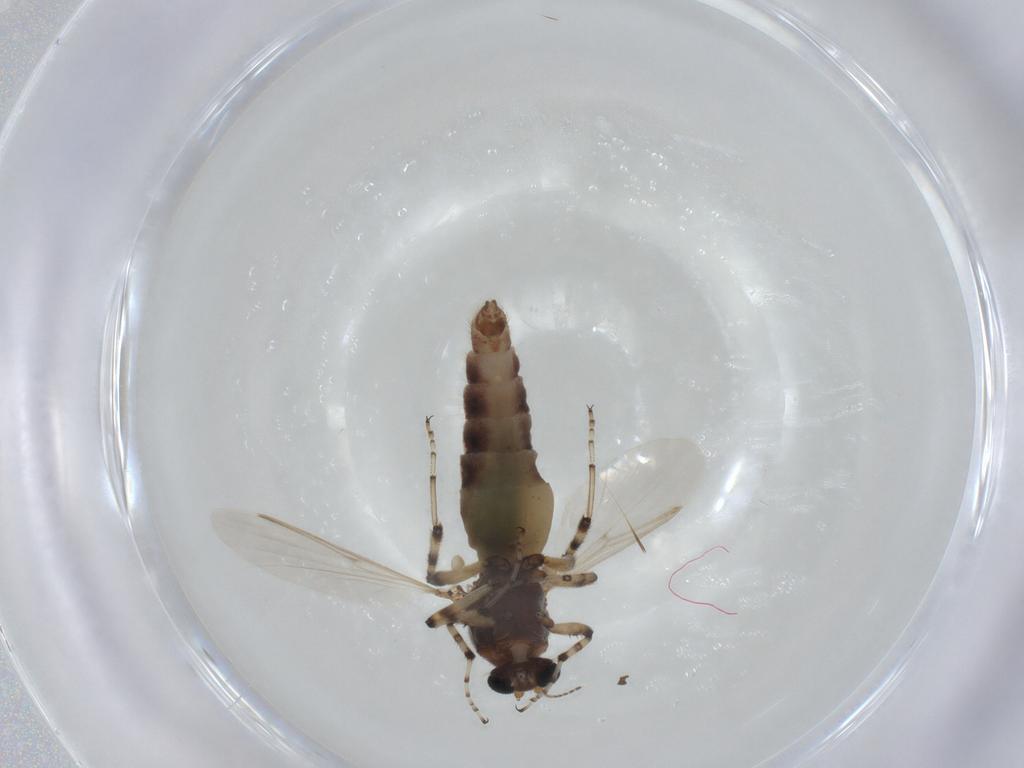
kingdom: Animalia
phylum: Arthropoda
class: Insecta
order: Diptera
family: Ceratopogonidae
